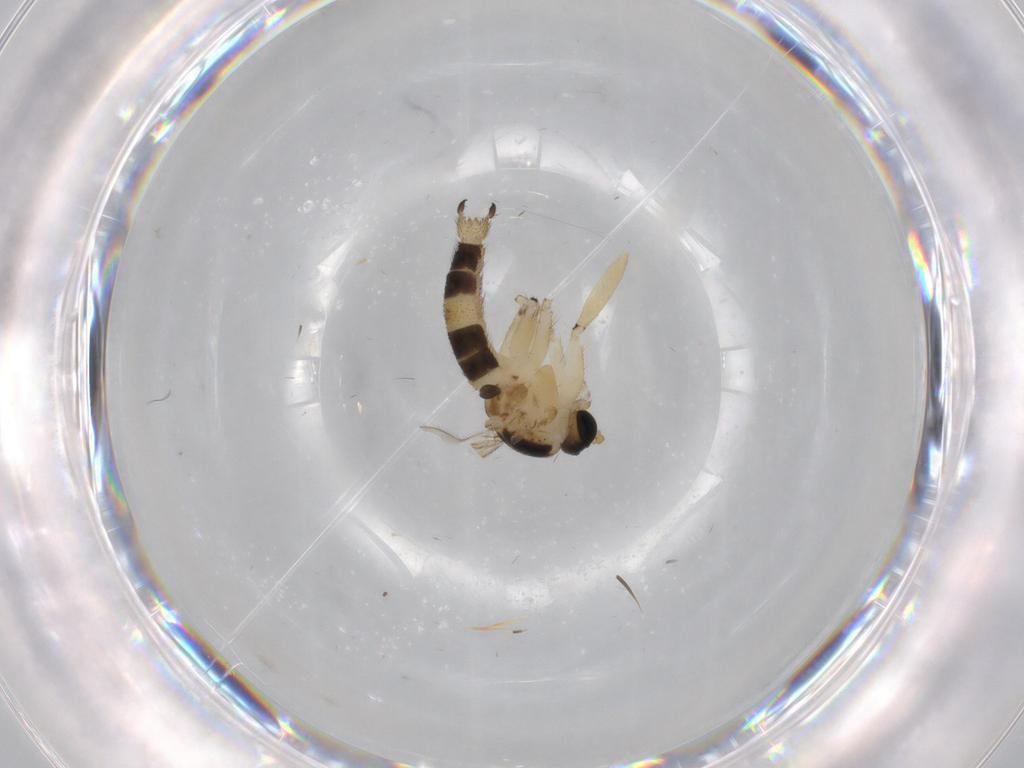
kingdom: Animalia
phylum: Arthropoda
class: Insecta
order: Diptera
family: Sciaridae
